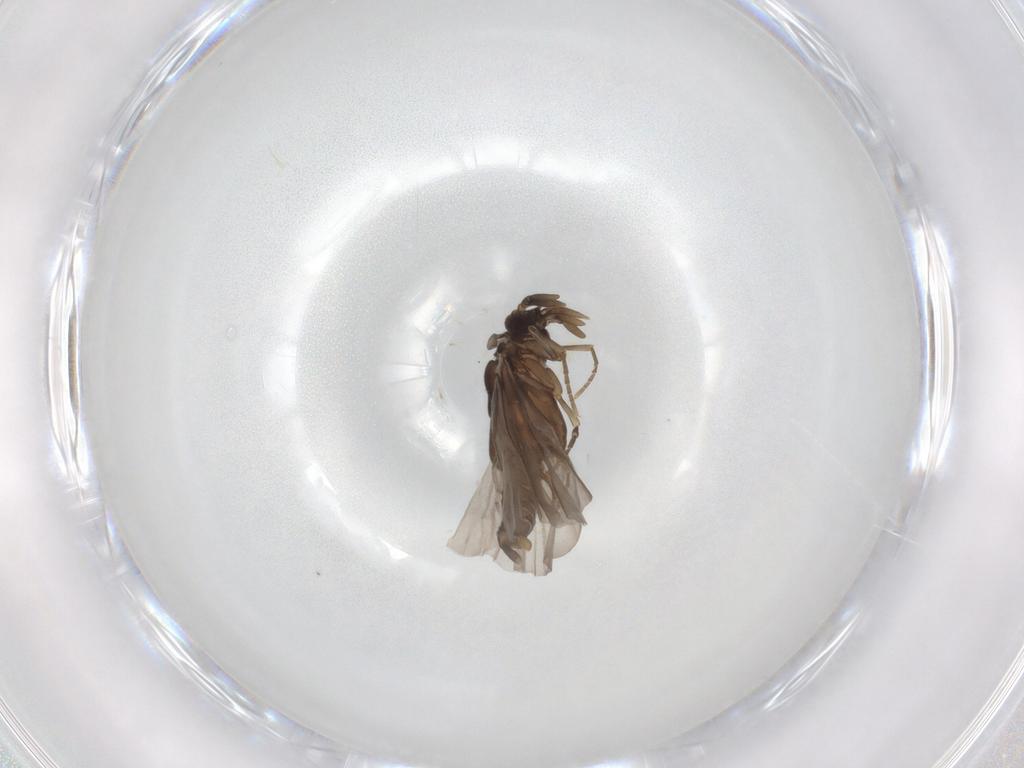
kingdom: Animalia
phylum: Arthropoda
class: Insecta
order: Strepsiptera
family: Mengenillidae
